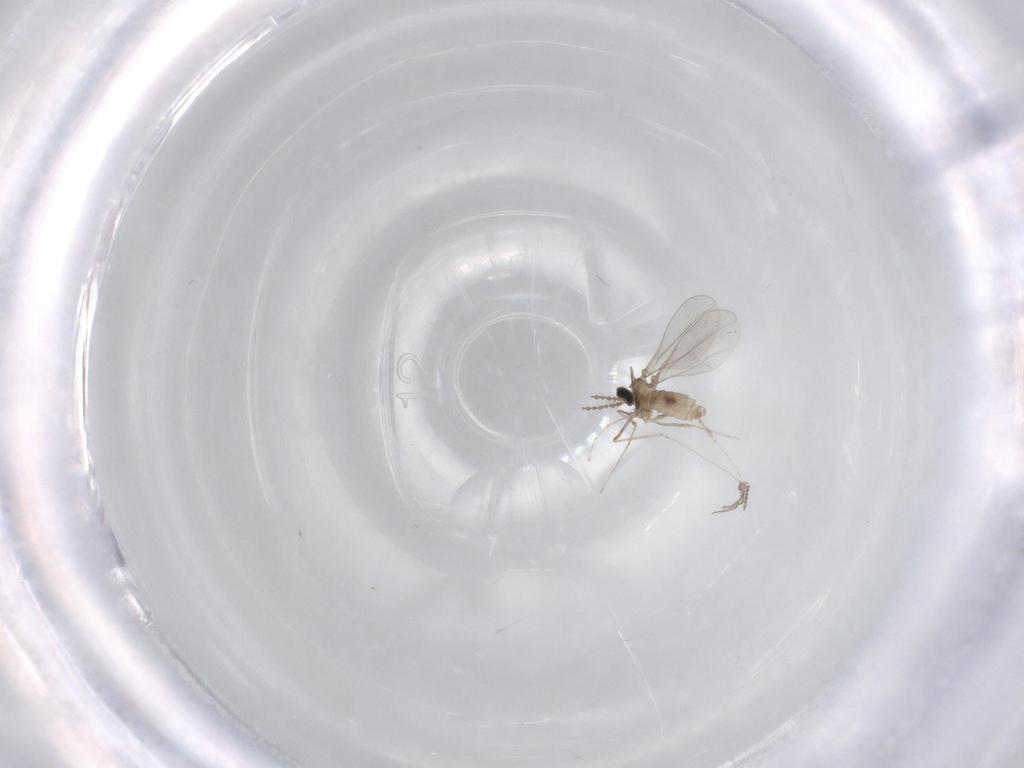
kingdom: Animalia
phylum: Arthropoda
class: Insecta
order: Diptera
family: Cecidomyiidae
